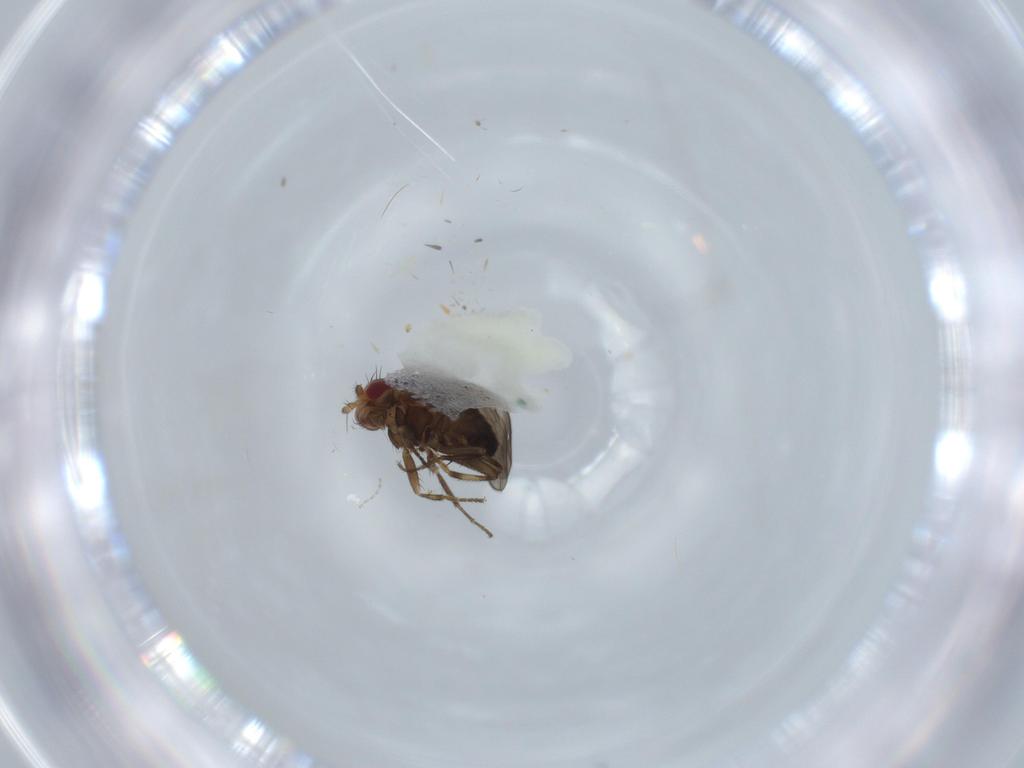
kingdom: Animalia
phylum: Arthropoda
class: Insecta
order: Diptera
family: Sphaeroceridae
